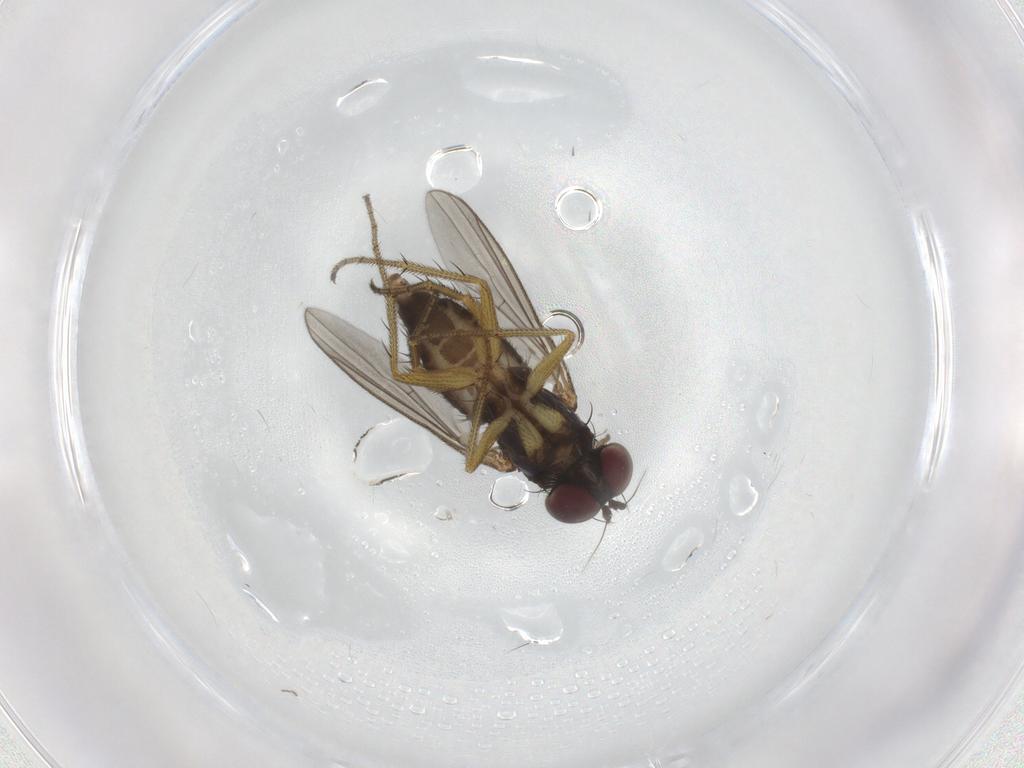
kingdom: Animalia
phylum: Arthropoda
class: Insecta
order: Diptera
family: Chironomidae
